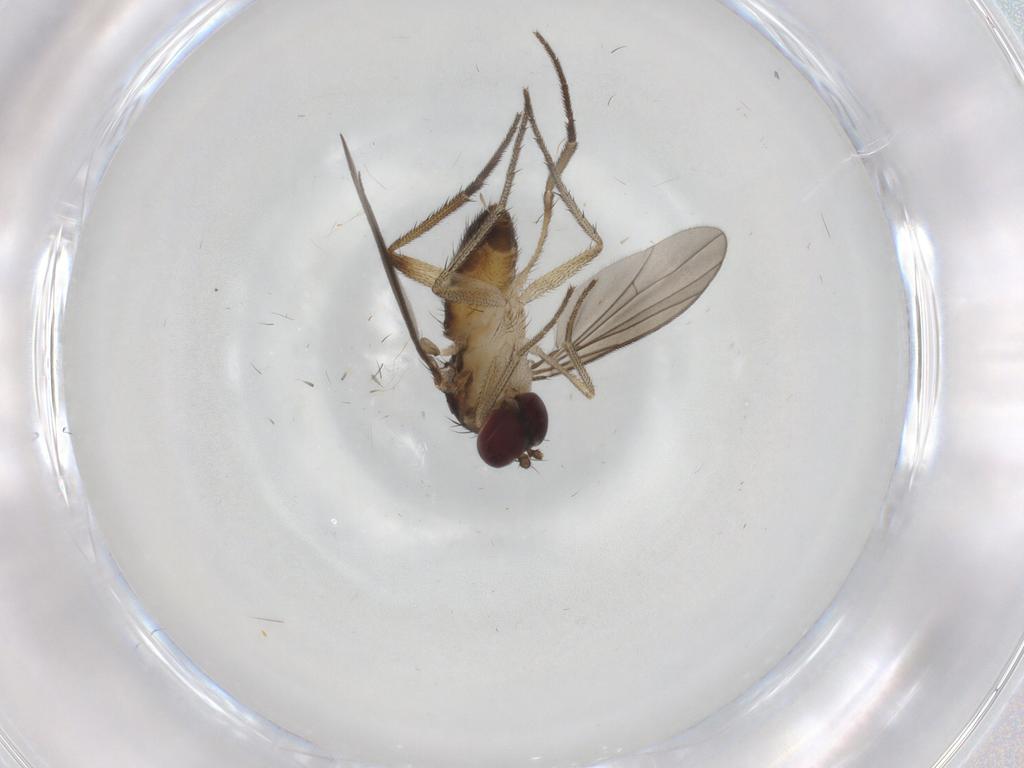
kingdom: Animalia
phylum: Arthropoda
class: Insecta
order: Diptera
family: Dolichopodidae
